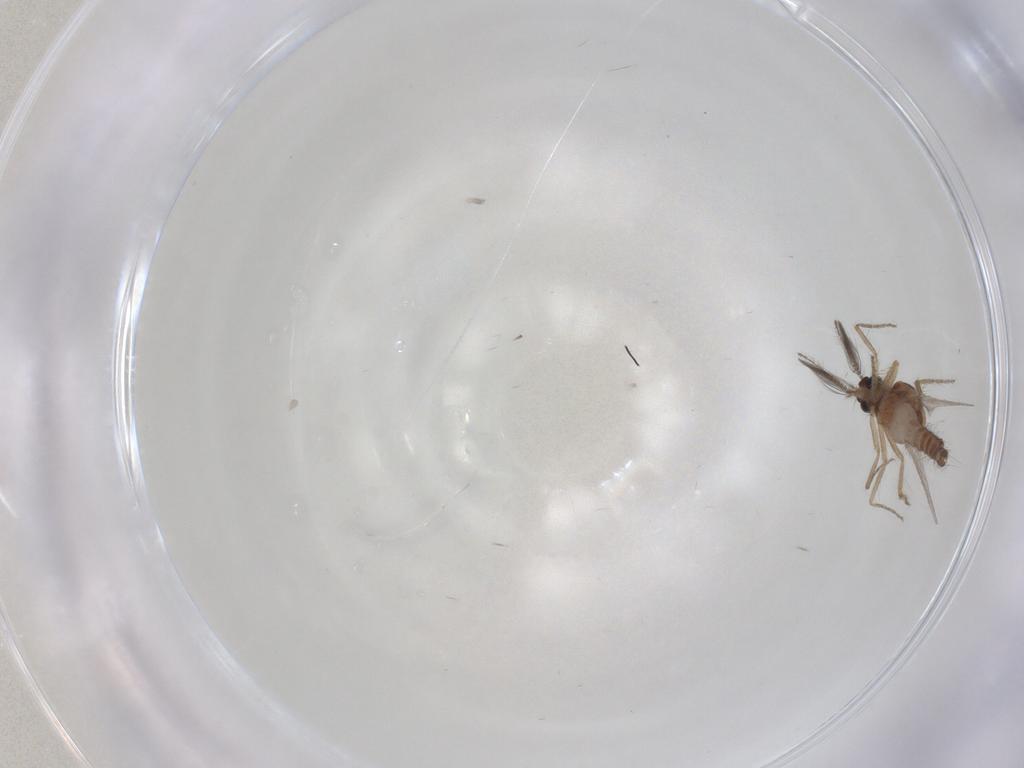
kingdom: Animalia
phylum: Arthropoda
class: Insecta
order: Diptera
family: Ceratopogonidae
